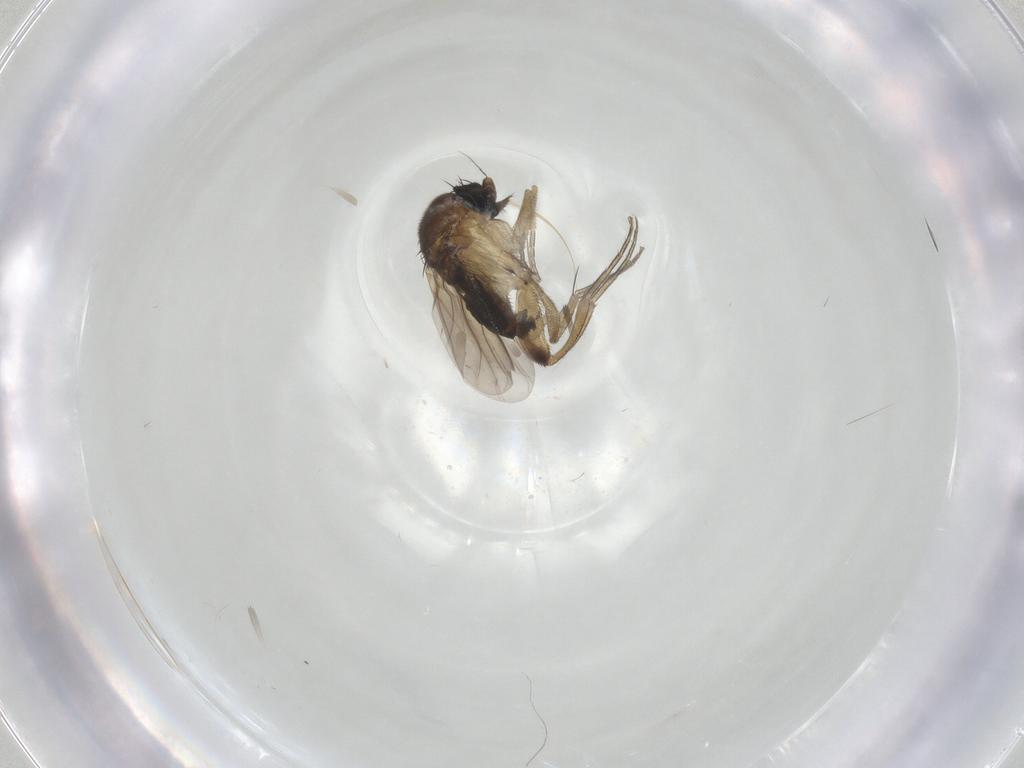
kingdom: Animalia
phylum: Arthropoda
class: Insecta
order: Diptera
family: Phoridae
